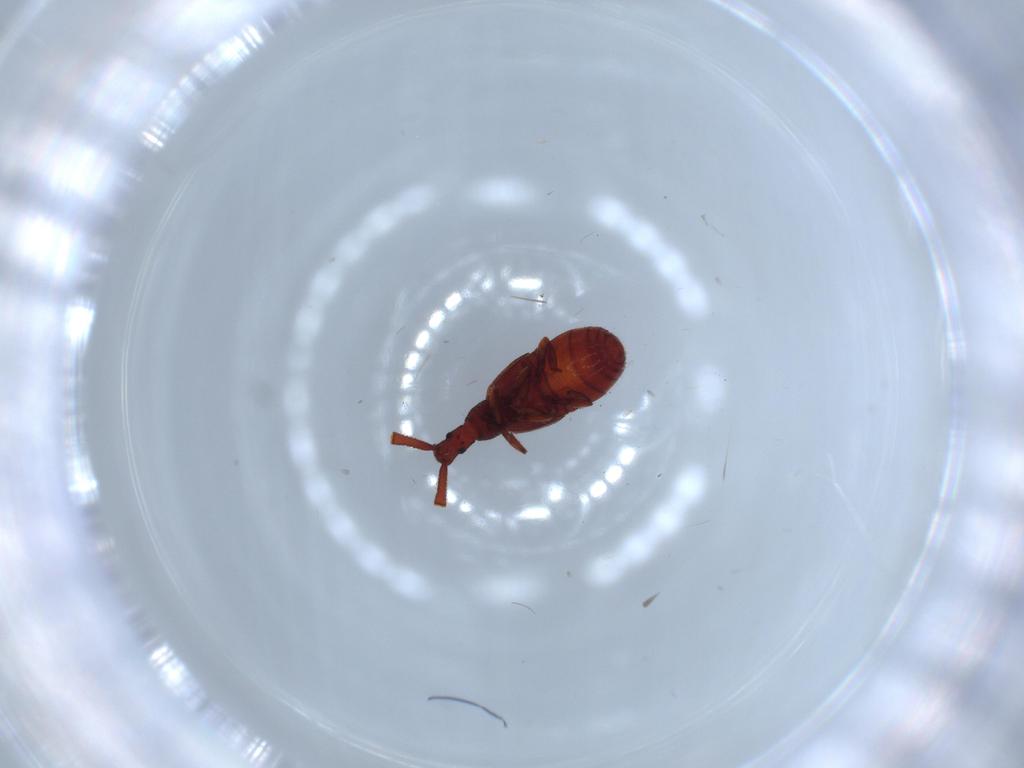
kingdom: Animalia
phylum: Arthropoda
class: Insecta
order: Coleoptera
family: Staphylinidae
